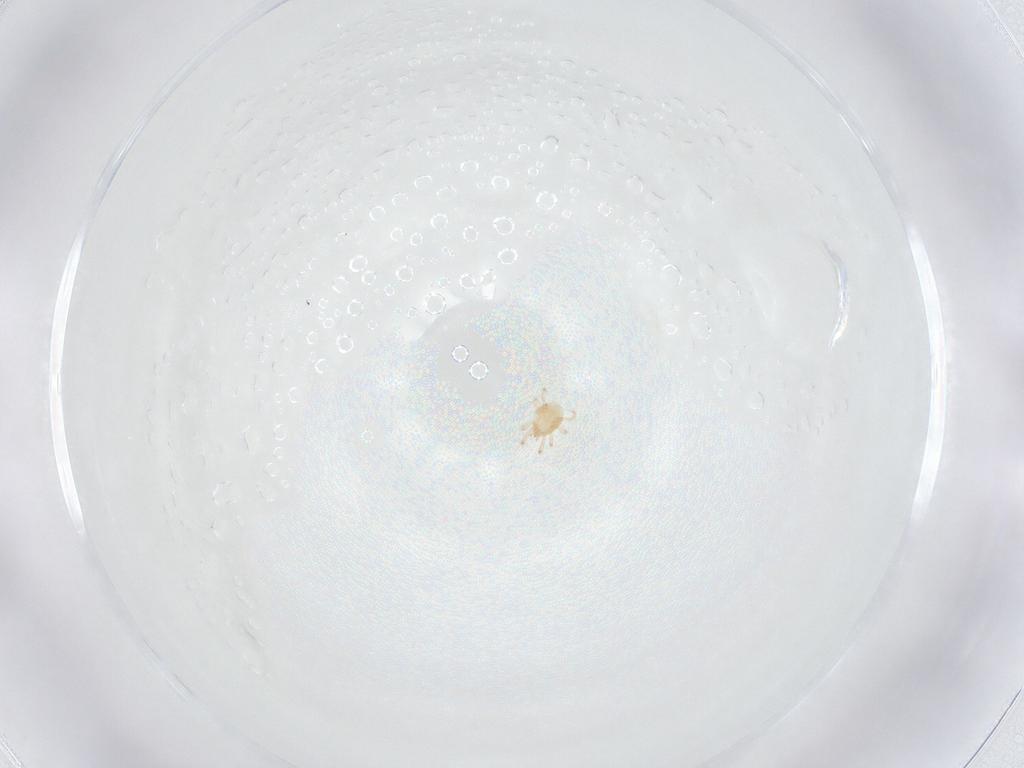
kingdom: Animalia
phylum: Arthropoda
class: Arachnida
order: Mesostigmata
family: Phytoseiidae
